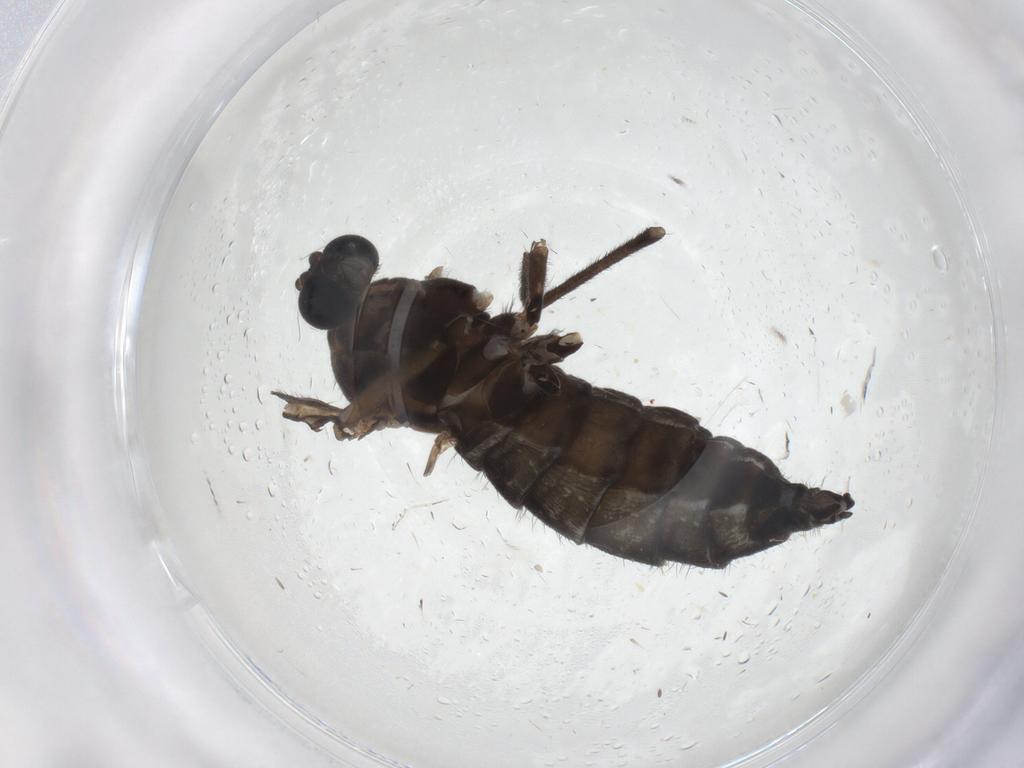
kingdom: Animalia
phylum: Arthropoda
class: Insecta
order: Diptera
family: Sciaridae
